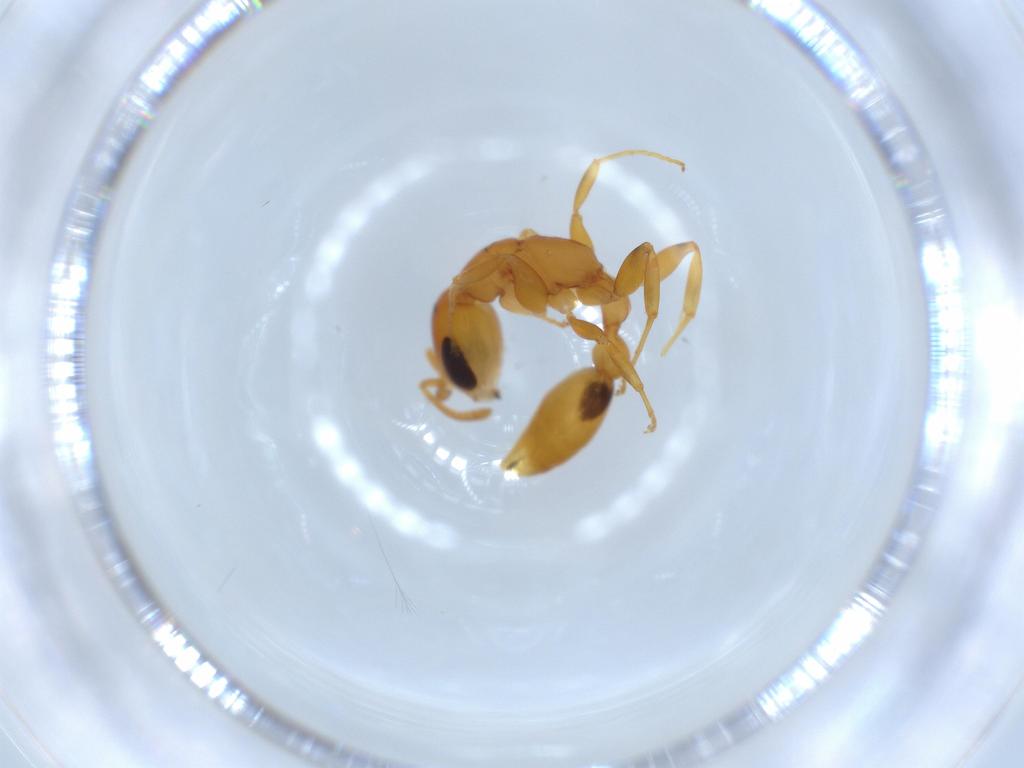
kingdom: Animalia
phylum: Arthropoda
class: Insecta
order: Hymenoptera
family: Formicidae
